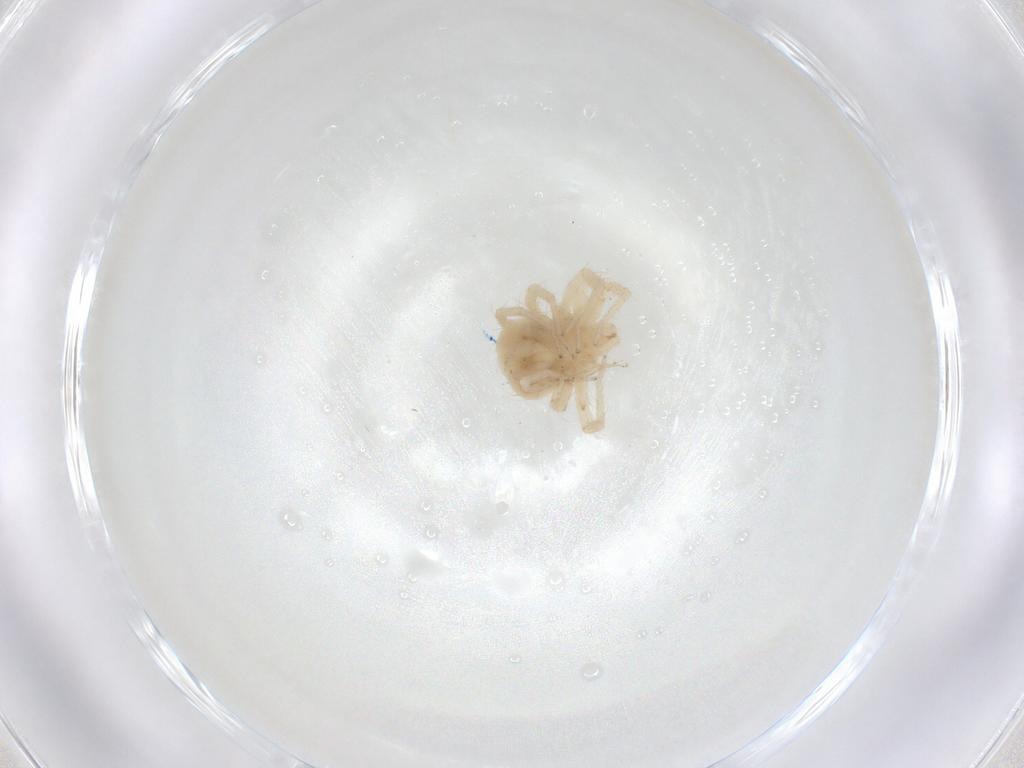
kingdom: Animalia
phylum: Arthropoda
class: Arachnida
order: Trombidiformes
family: Anystidae
